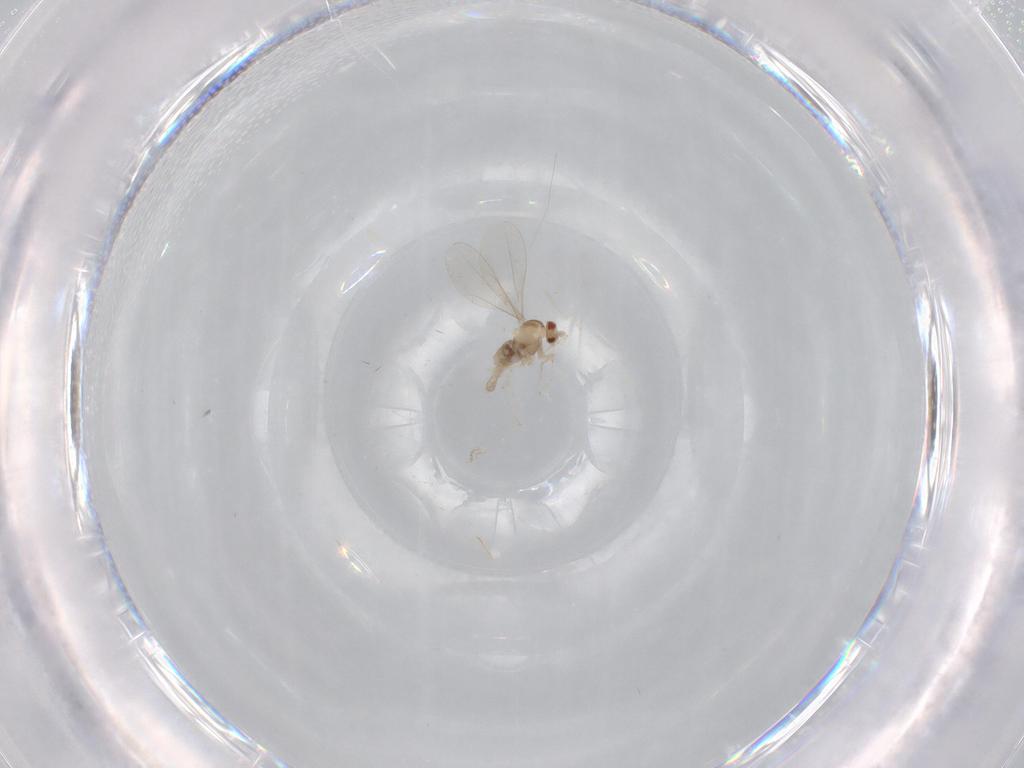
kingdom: Animalia
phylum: Arthropoda
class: Insecta
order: Diptera
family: Cecidomyiidae
